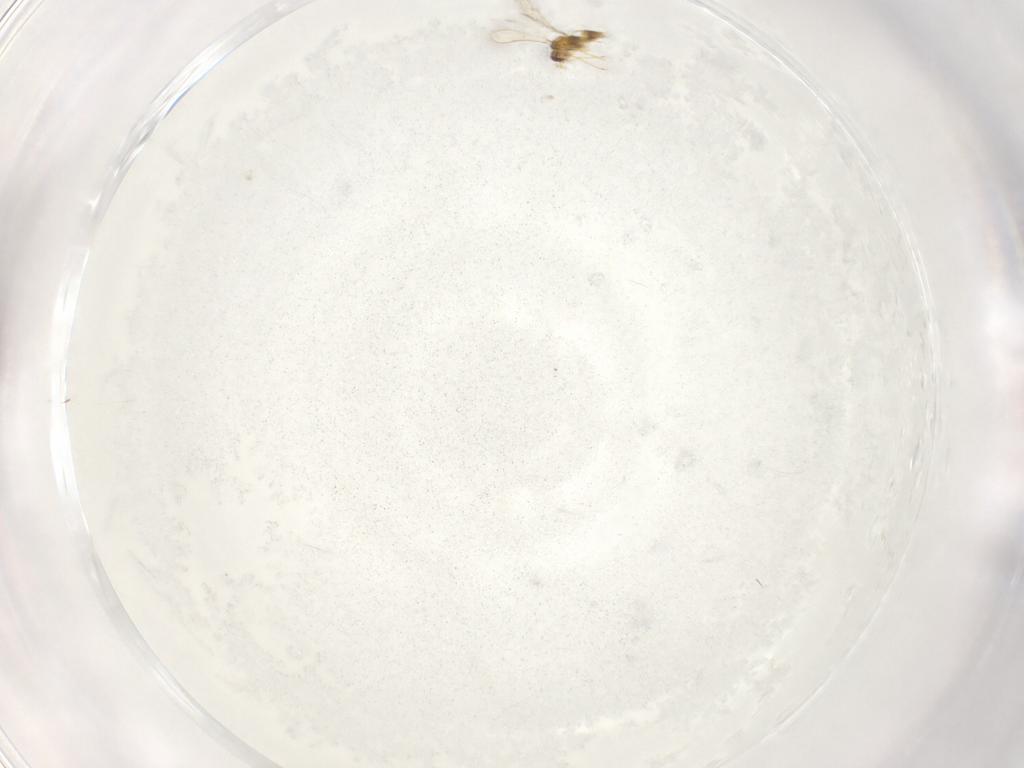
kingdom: Animalia
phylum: Arthropoda
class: Insecta
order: Hymenoptera
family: Mymaridae
